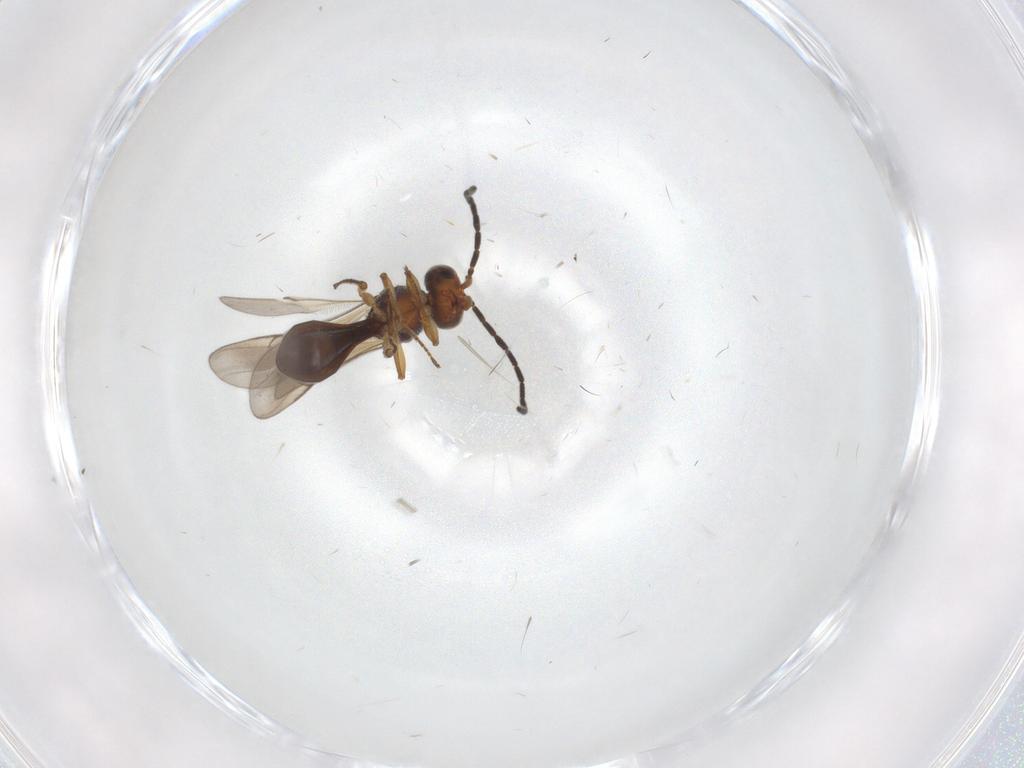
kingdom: Animalia
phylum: Arthropoda
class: Insecta
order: Hymenoptera
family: Scelionidae
